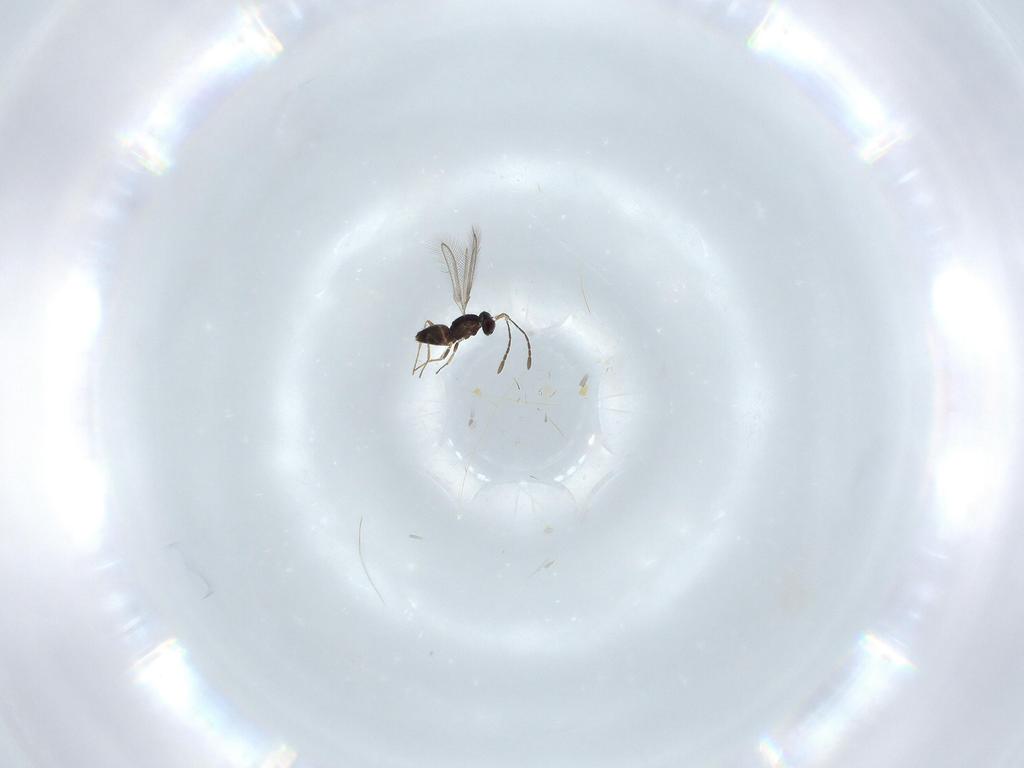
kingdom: Animalia
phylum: Arthropoda
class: Insecta
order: Hymenoptera
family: Mymaridae
